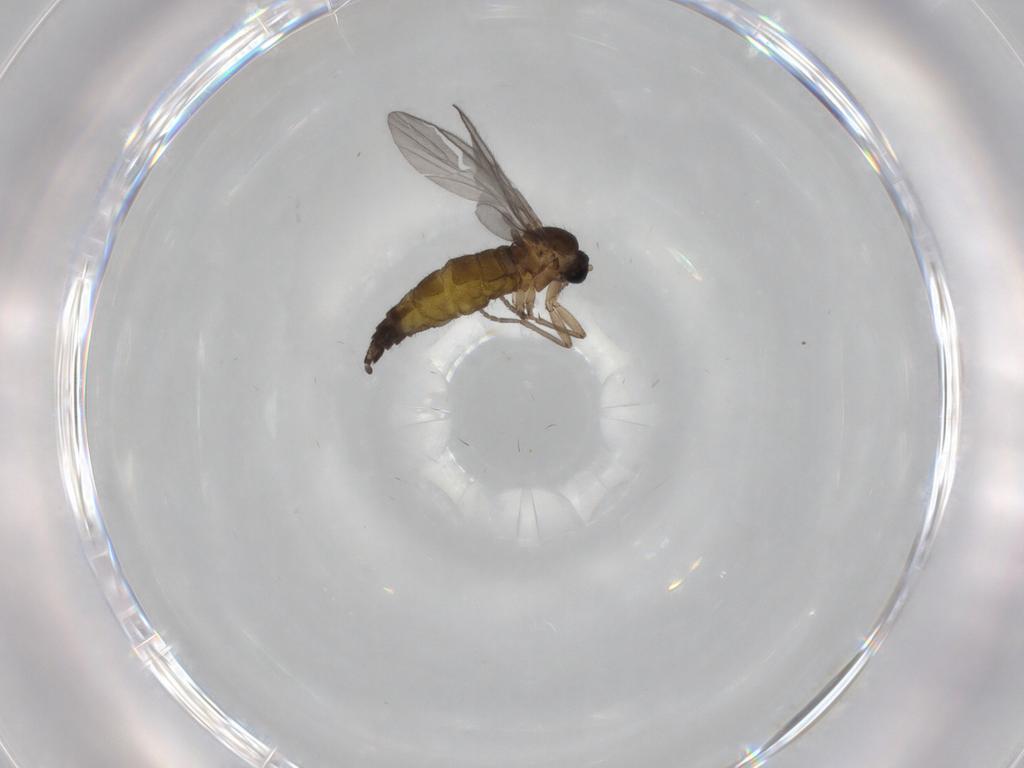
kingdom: Animalia
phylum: Arthropoda
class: Insecta
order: Diptera
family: Sciaridae
